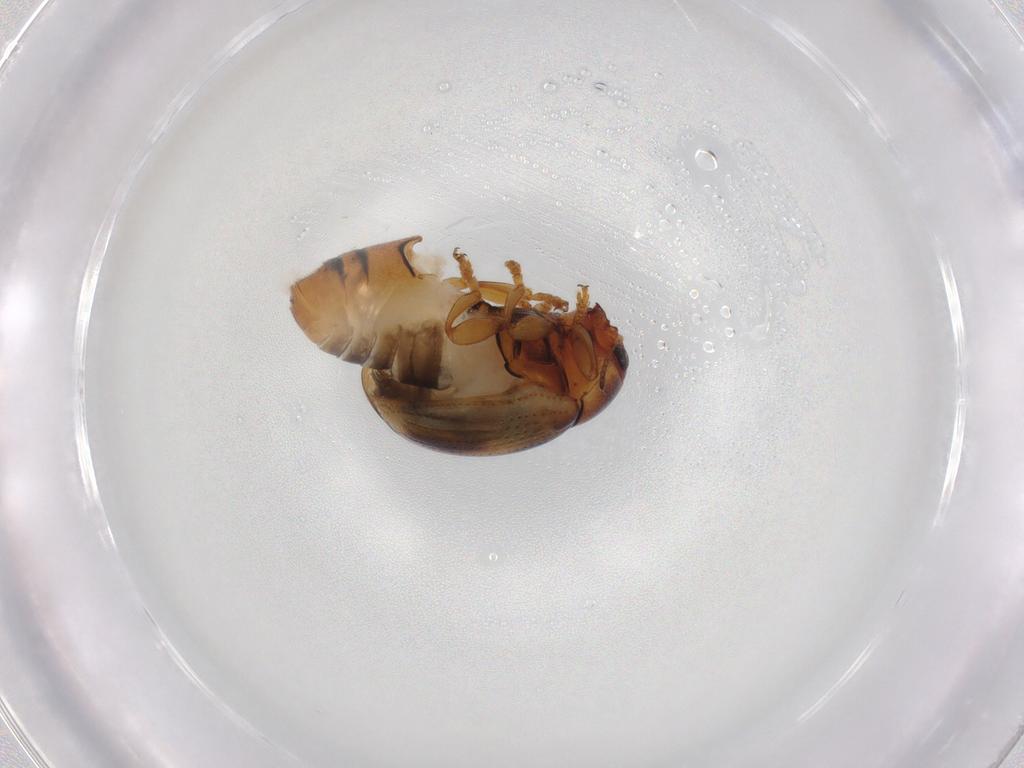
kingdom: Animalia
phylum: Arthropoda
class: Insecta
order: Coleoptera
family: Chrysomelidae
